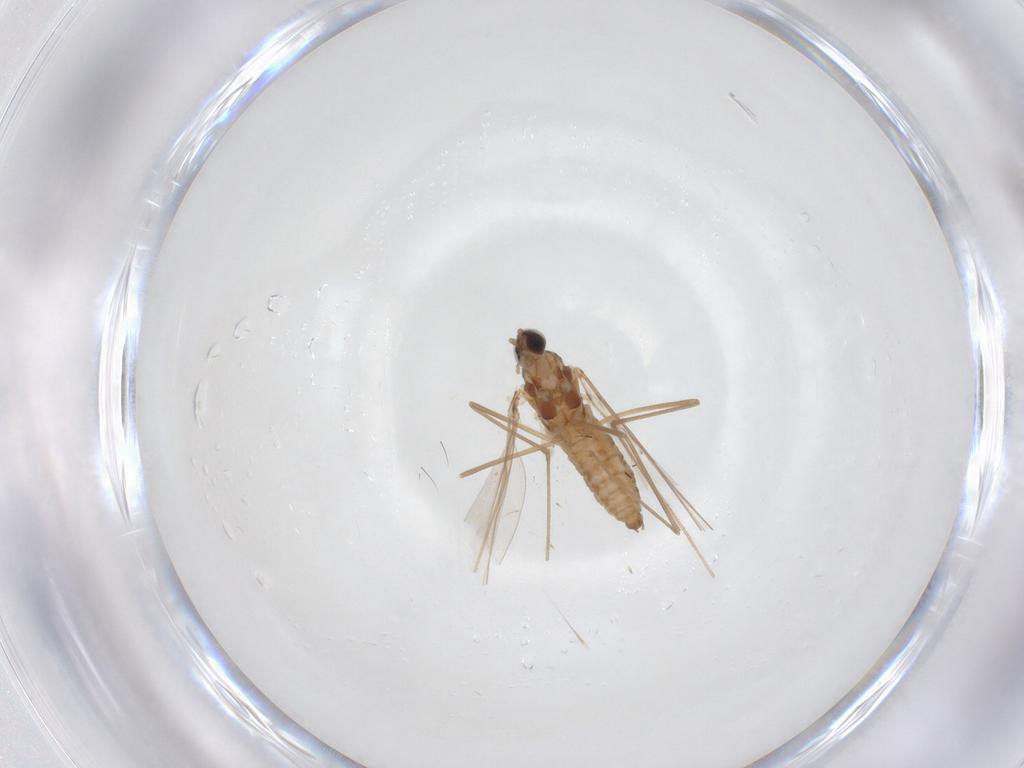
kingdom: Animalia
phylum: Arthropoda
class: Insecta
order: Diptera
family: Cecidomyiidae
